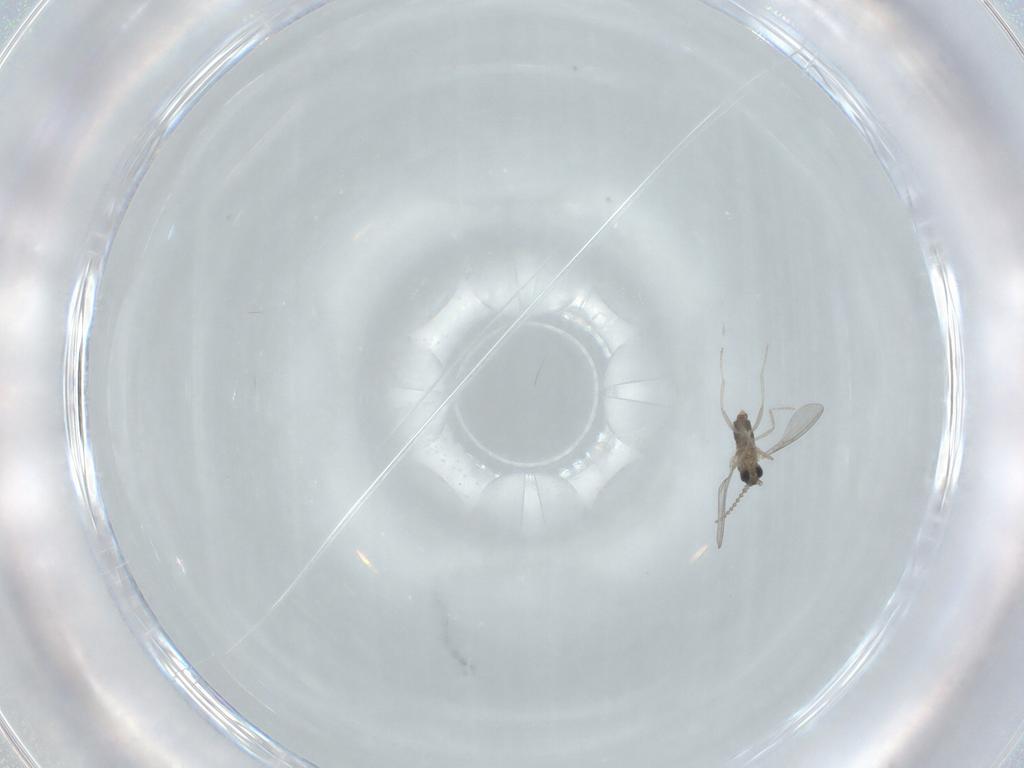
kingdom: Animalia
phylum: Arthropoda
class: Insecta
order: Diptera
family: Cecidomyiidae
